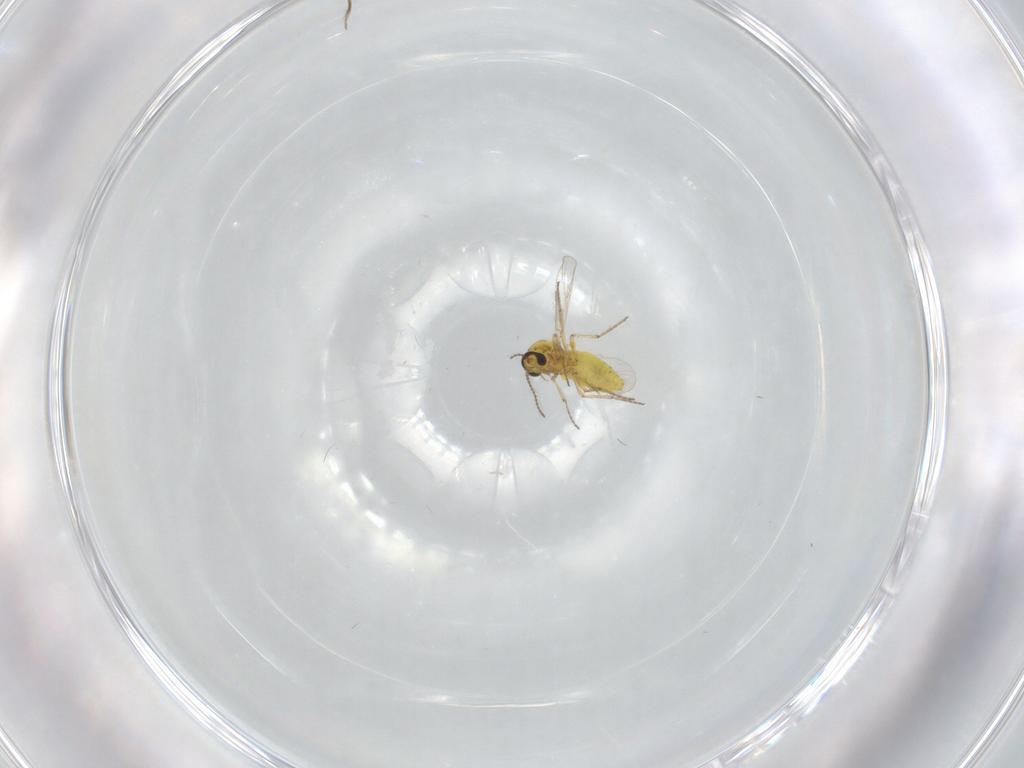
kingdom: Animalia
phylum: Arthropoda
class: Insecta
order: Diptera
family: Ceratopogonidae
